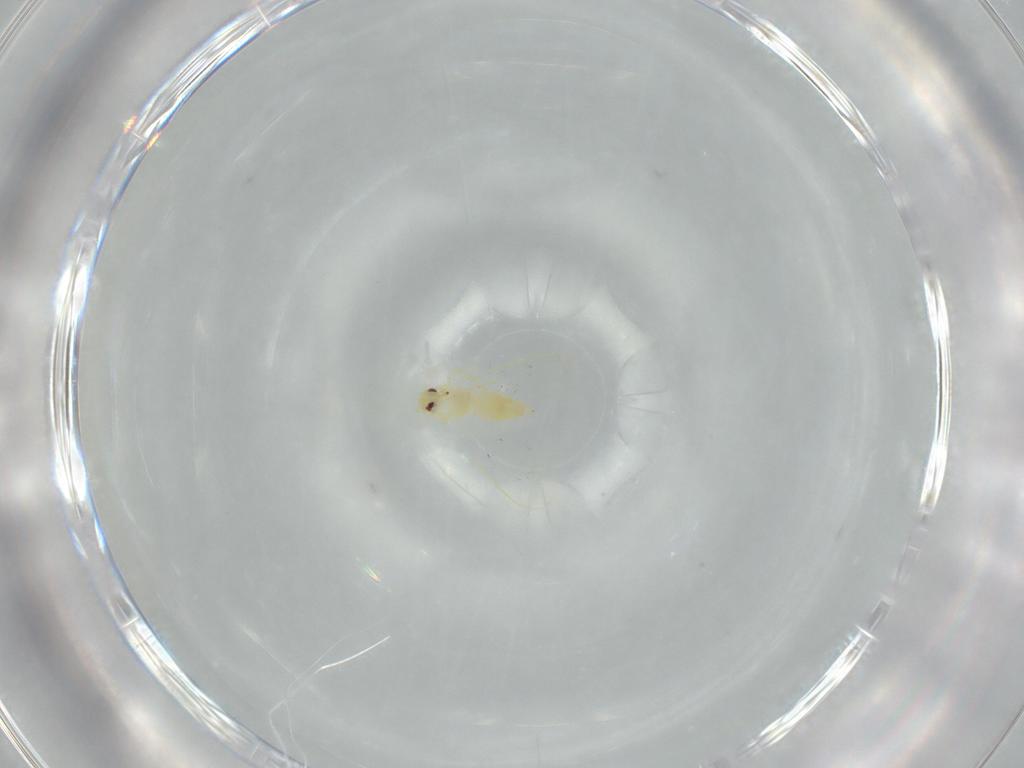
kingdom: Animalia
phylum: Arthropoda
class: Insecta
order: Hemiptera
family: Aleyrodidae
